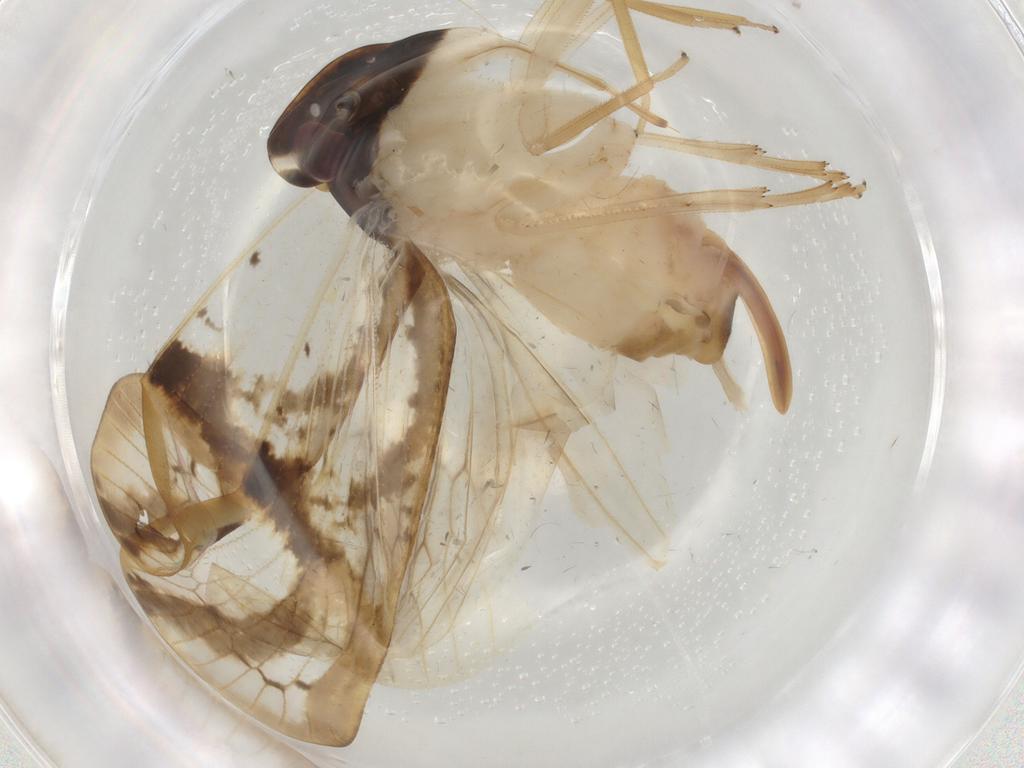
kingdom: Animalia
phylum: Arthropoda
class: Insecta
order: Hemiptera
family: Cixiidae
